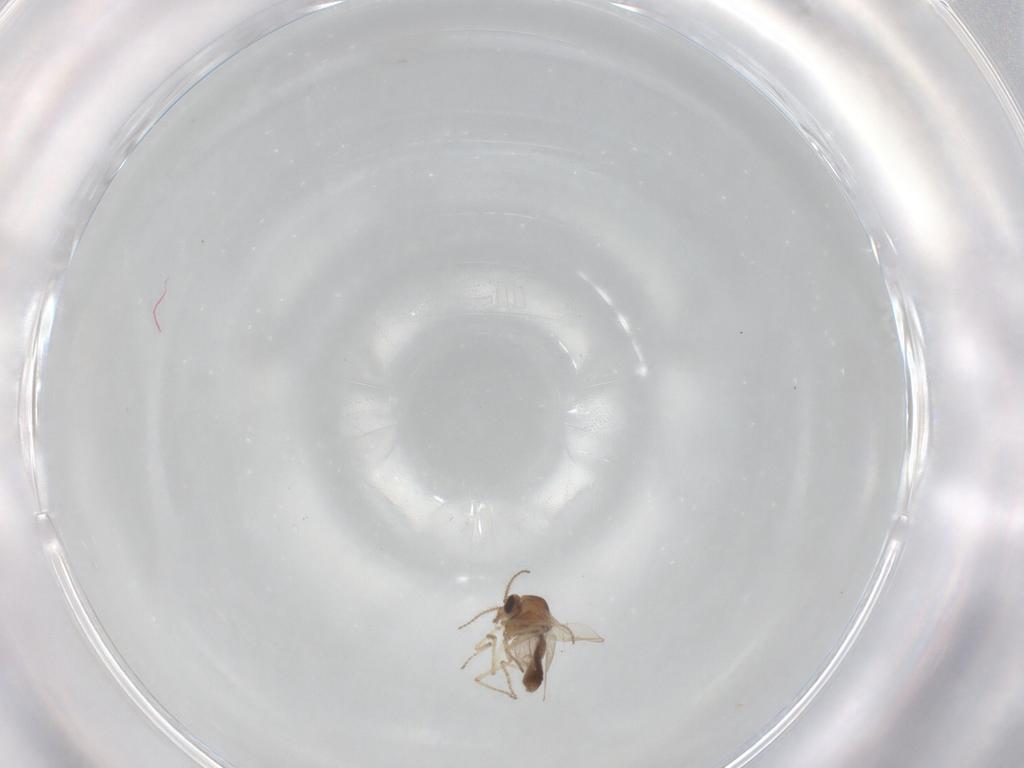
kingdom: Animalia
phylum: Arthropoda
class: Insecta
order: Diptera
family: Ceratopogonidae
